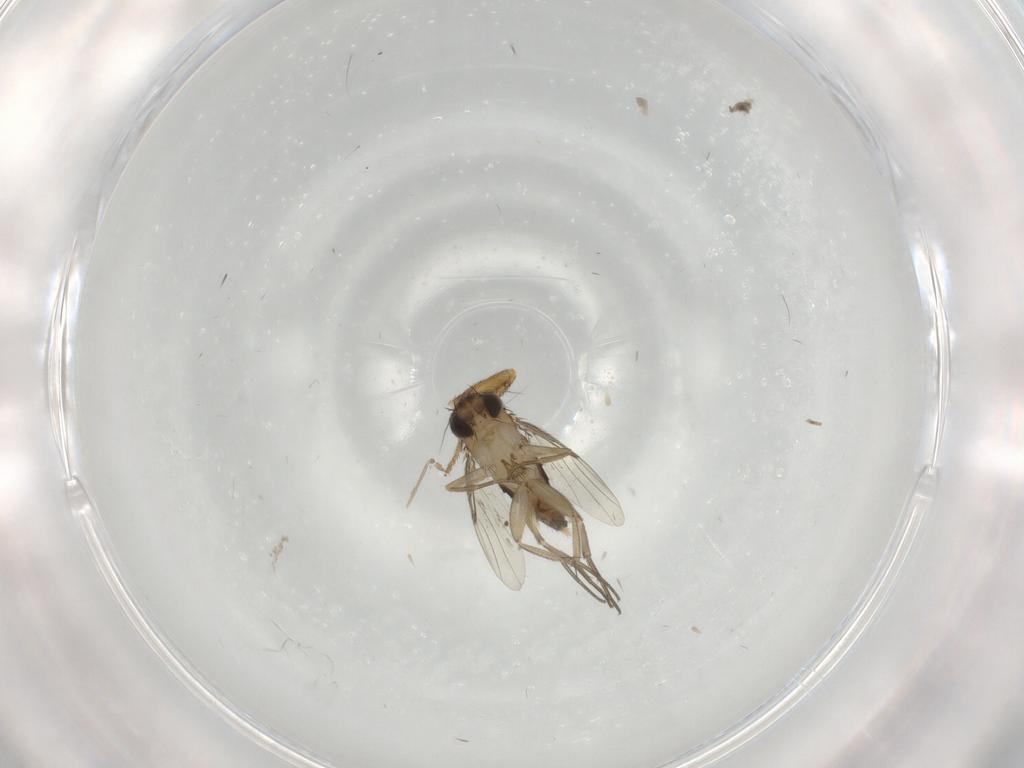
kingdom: Animalia
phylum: Arthropoda
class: Insecta
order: Diptera
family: Phoridae
